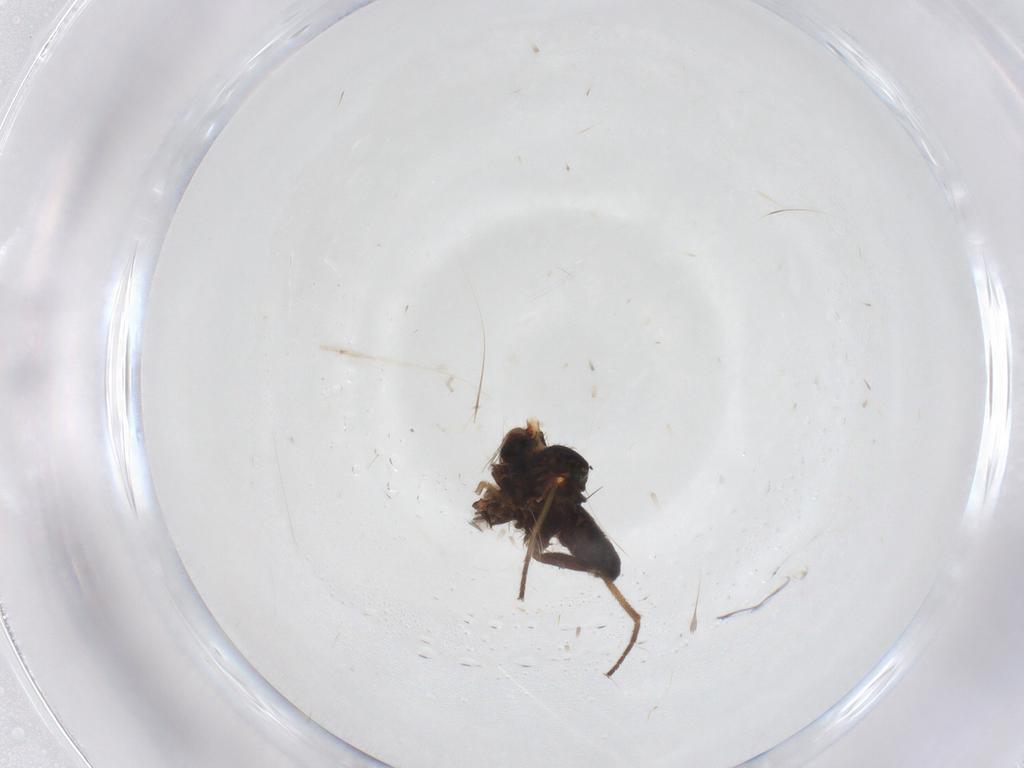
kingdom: Animalia
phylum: Arthropoda
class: Insecta
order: Diptera
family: Dolichopodidae
